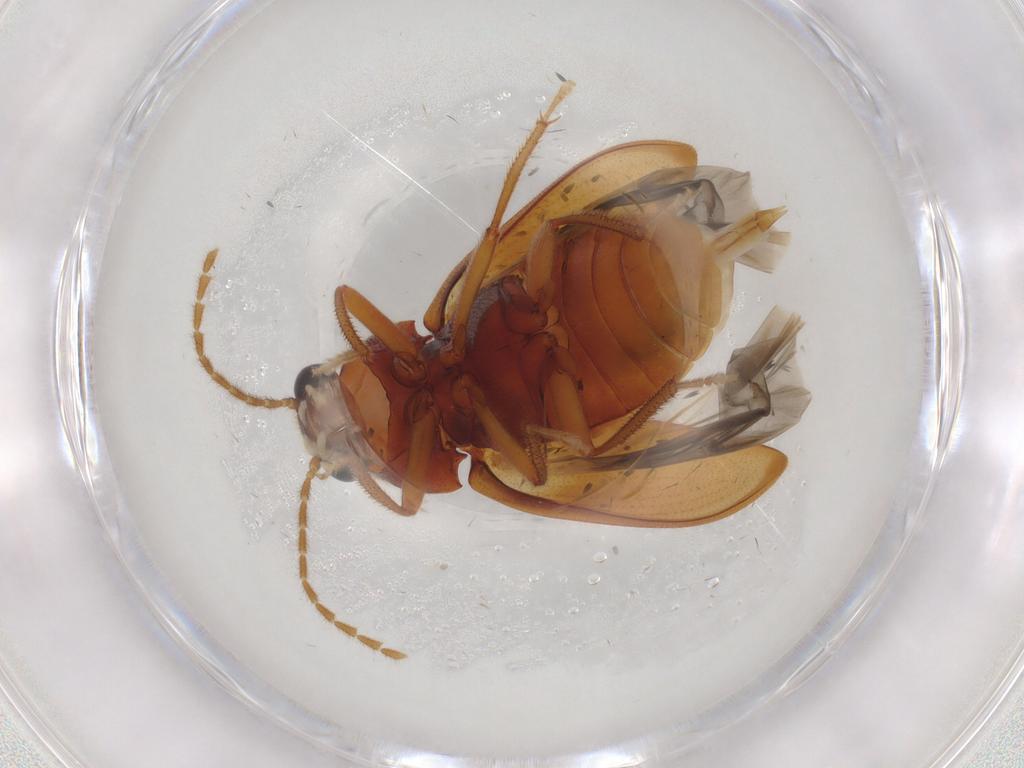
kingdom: Animalia
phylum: Arthropoda
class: Insecta
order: Coleoptera
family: Ptilodactylidae
